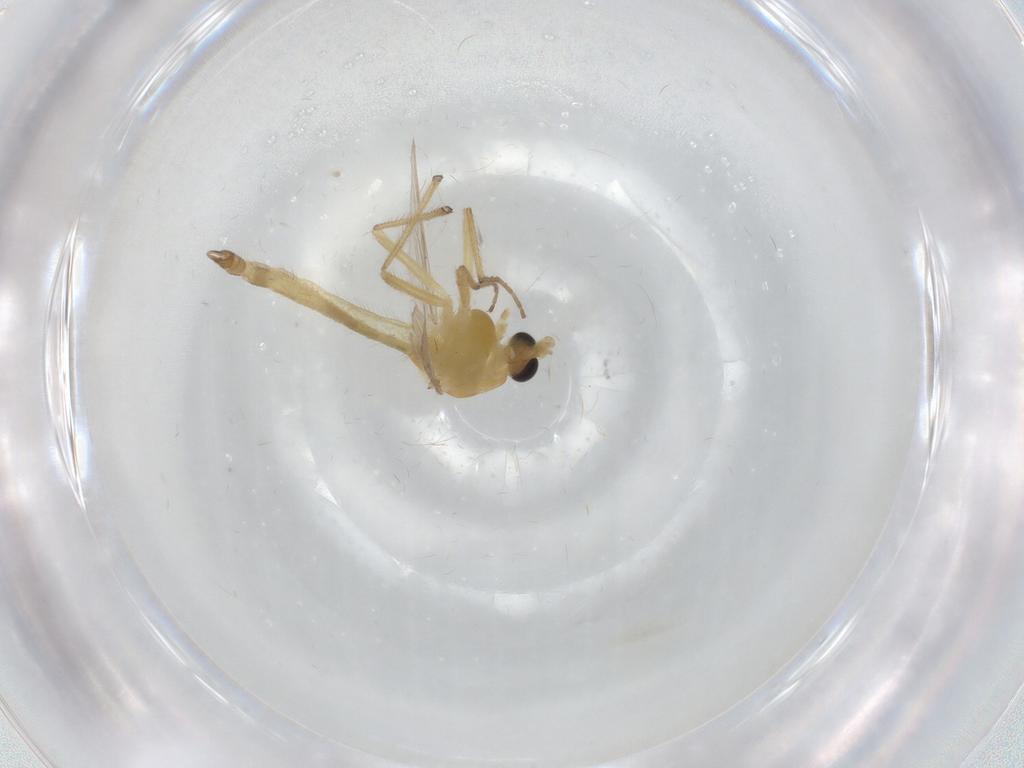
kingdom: Animalia
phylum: Arthropoda
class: Insecta
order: Diptera
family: Chironomidae
